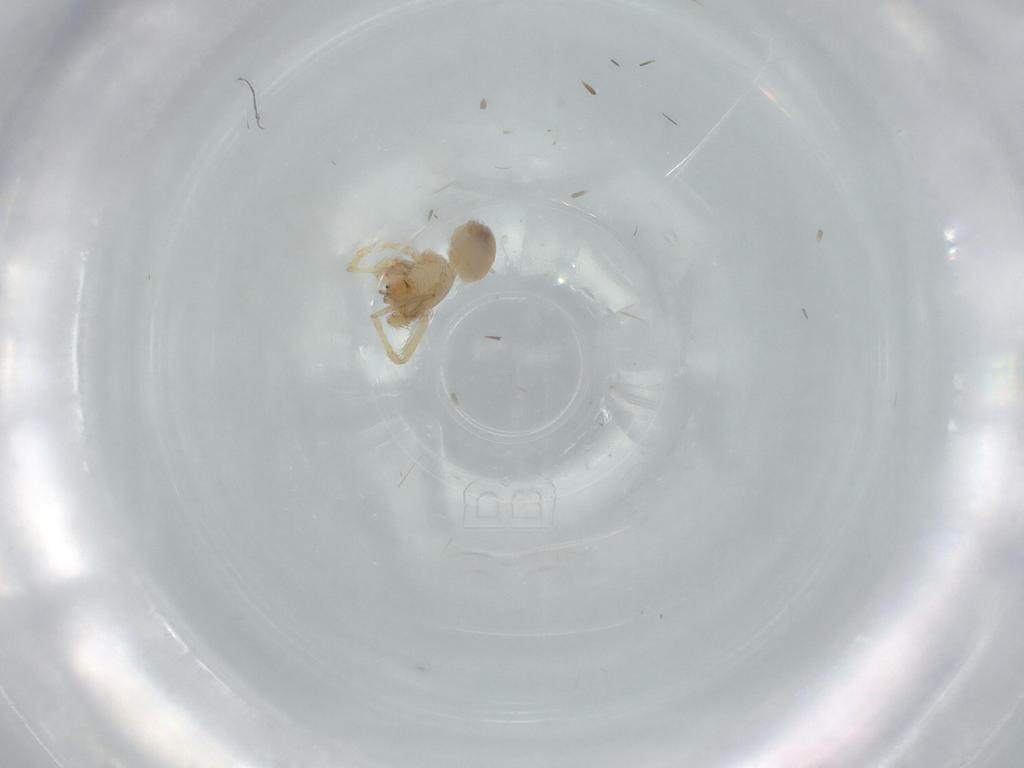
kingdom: Animalia
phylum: Arthropoda
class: Arachnida
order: Araneae
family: Oonopidae
